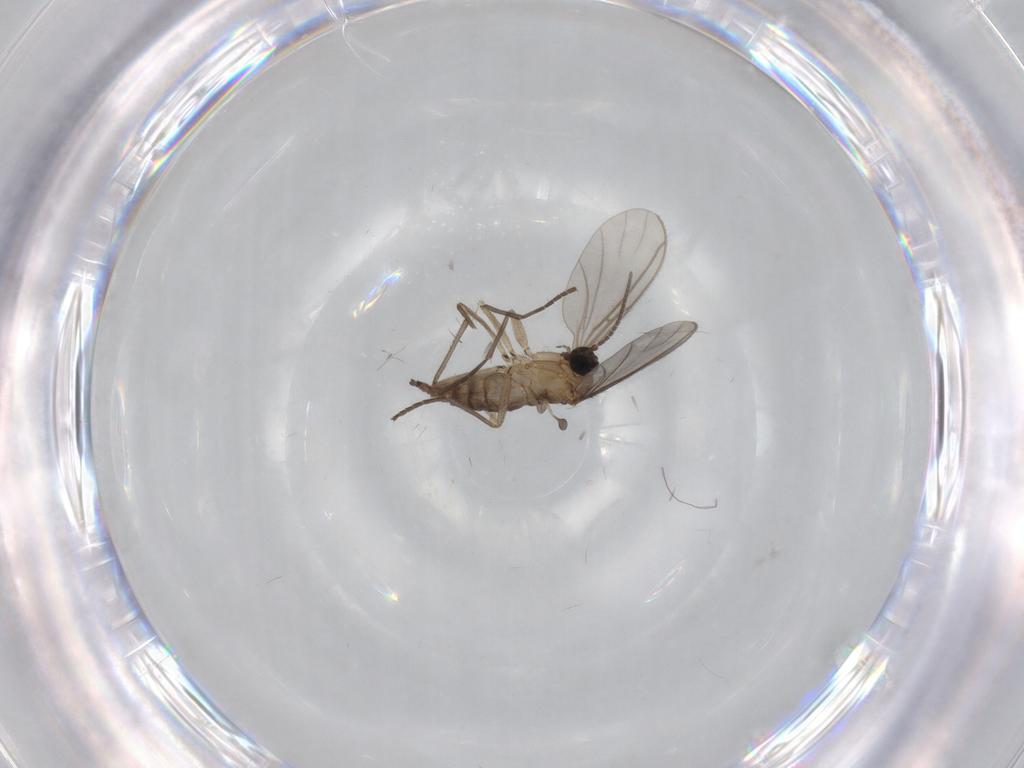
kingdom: Animalia
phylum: Arthropoda
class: Insecta
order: Diptera
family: Sciaridae
